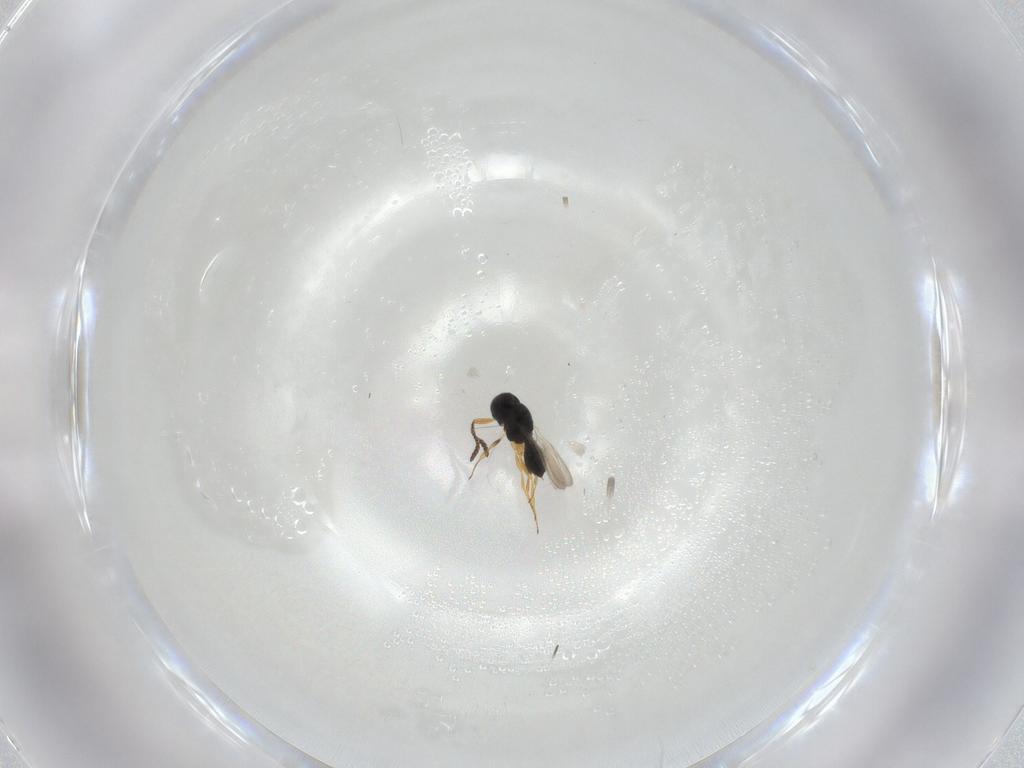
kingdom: Animalia
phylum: Arthropoda
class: Insecta
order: Hymenoptera
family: Scelionidae
